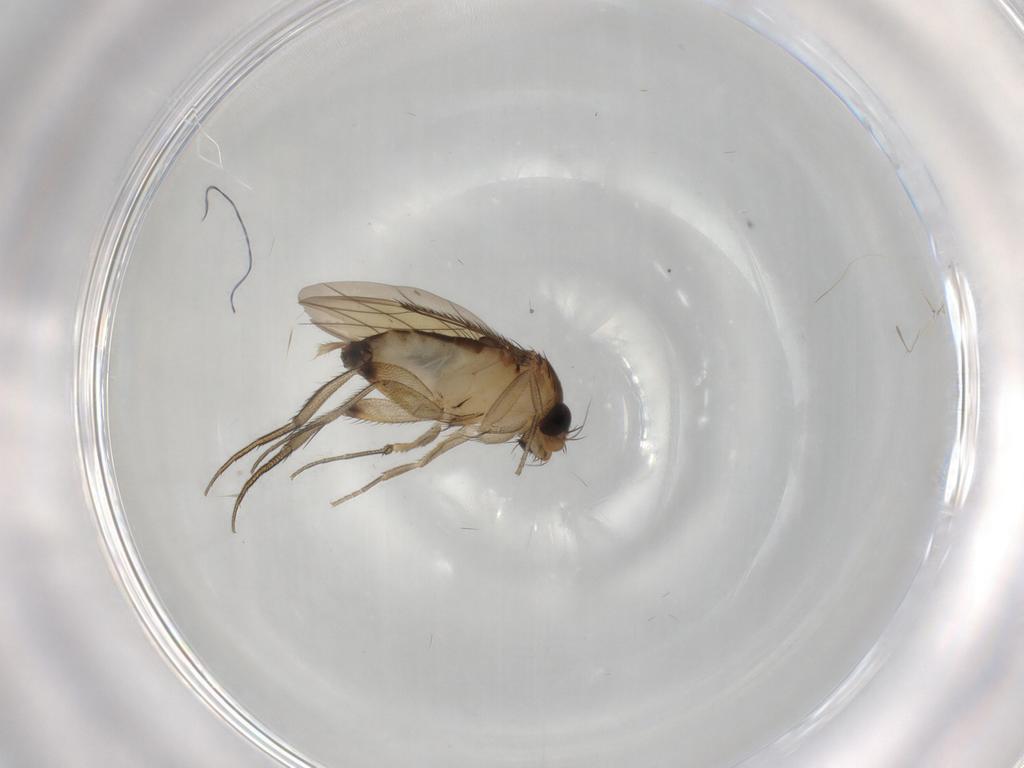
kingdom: Animalia
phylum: Arthropoda
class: Insecta
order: Diptera
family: Phoridae
